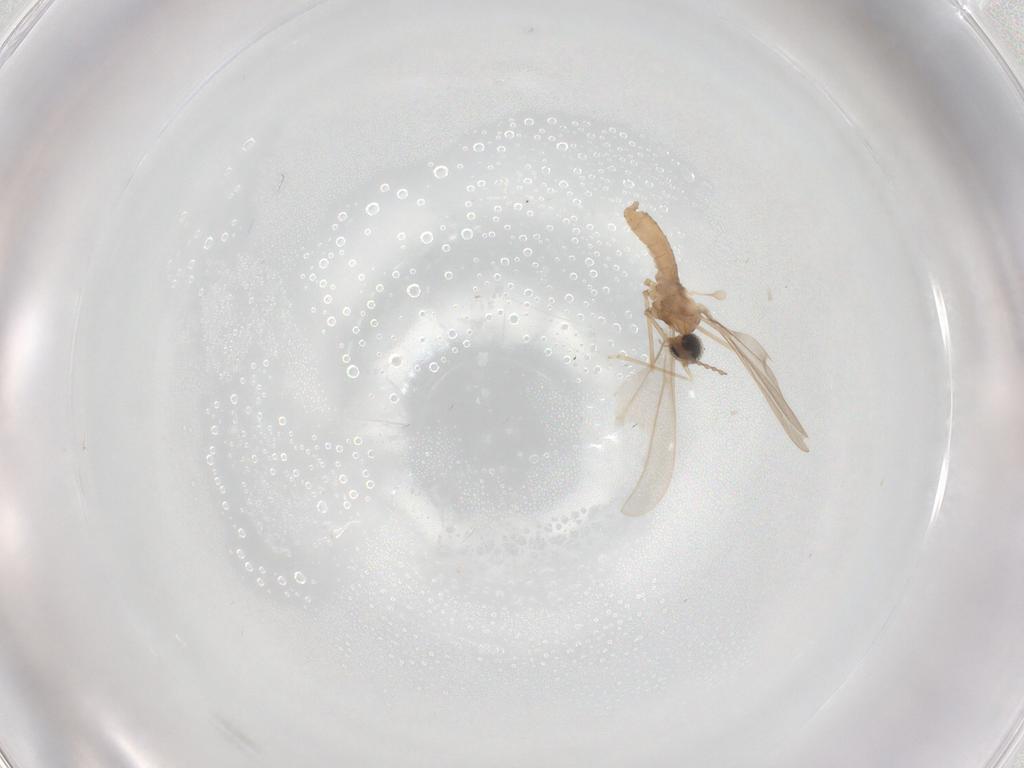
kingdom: Animalia
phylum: Arthropoda
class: Insecta
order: Diptera
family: Cecidomyiidae
